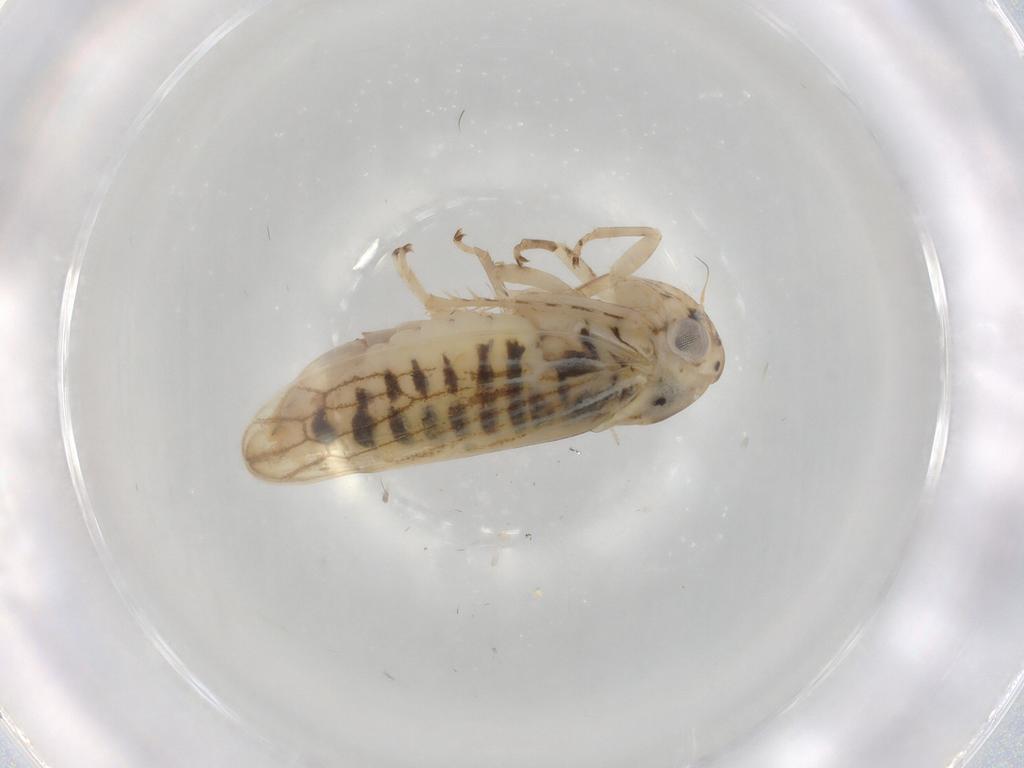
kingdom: Animalia
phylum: Arthropoda
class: Insecta
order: Hemiptera
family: Cicadellidae
